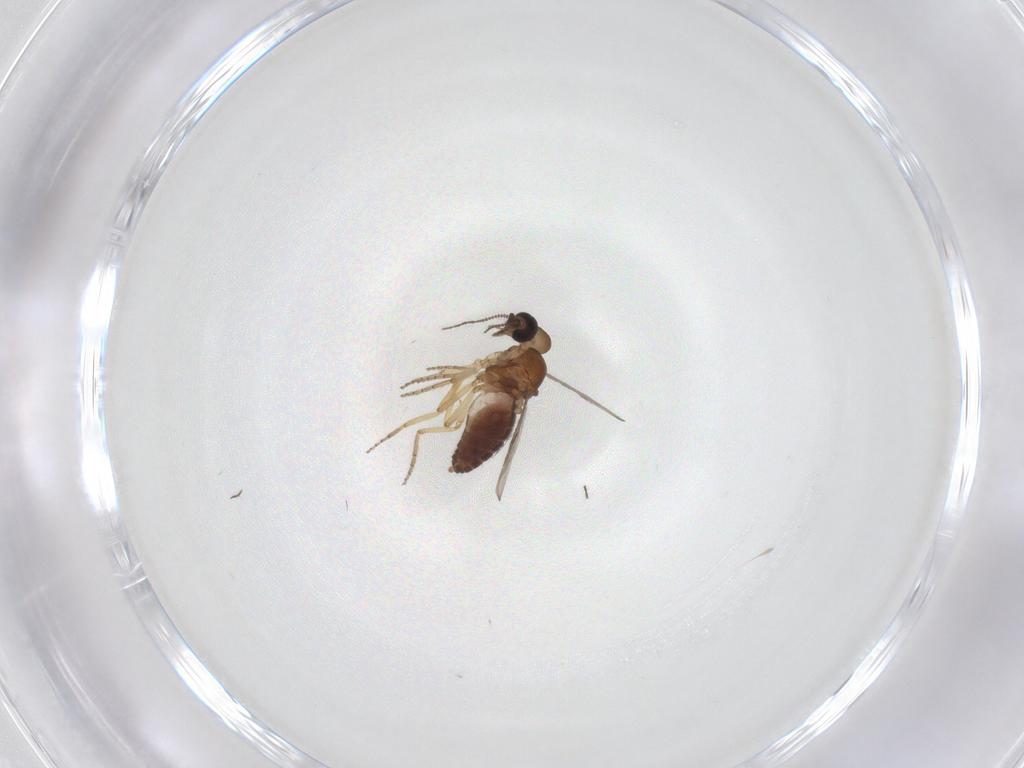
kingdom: Animalia
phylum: Arthropoda
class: Insecta
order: Diptera
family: Ceratopogonidae
